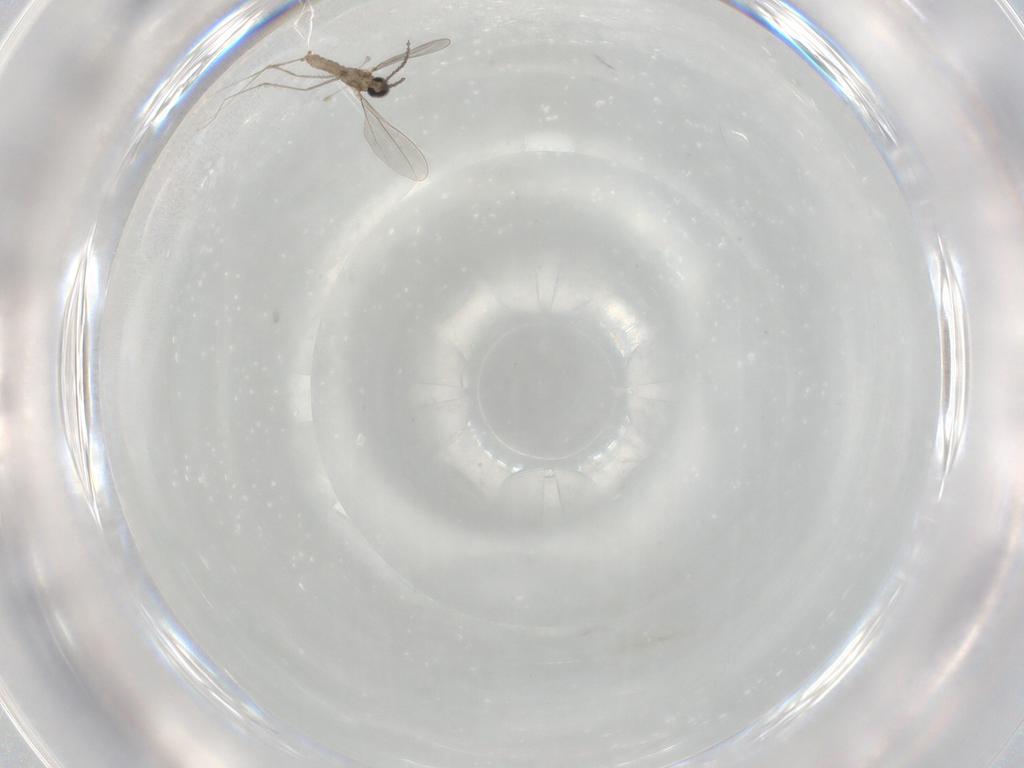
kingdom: Animalia
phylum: Arthropoda
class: Insecta
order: Diptera
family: Cecidomyiidae
